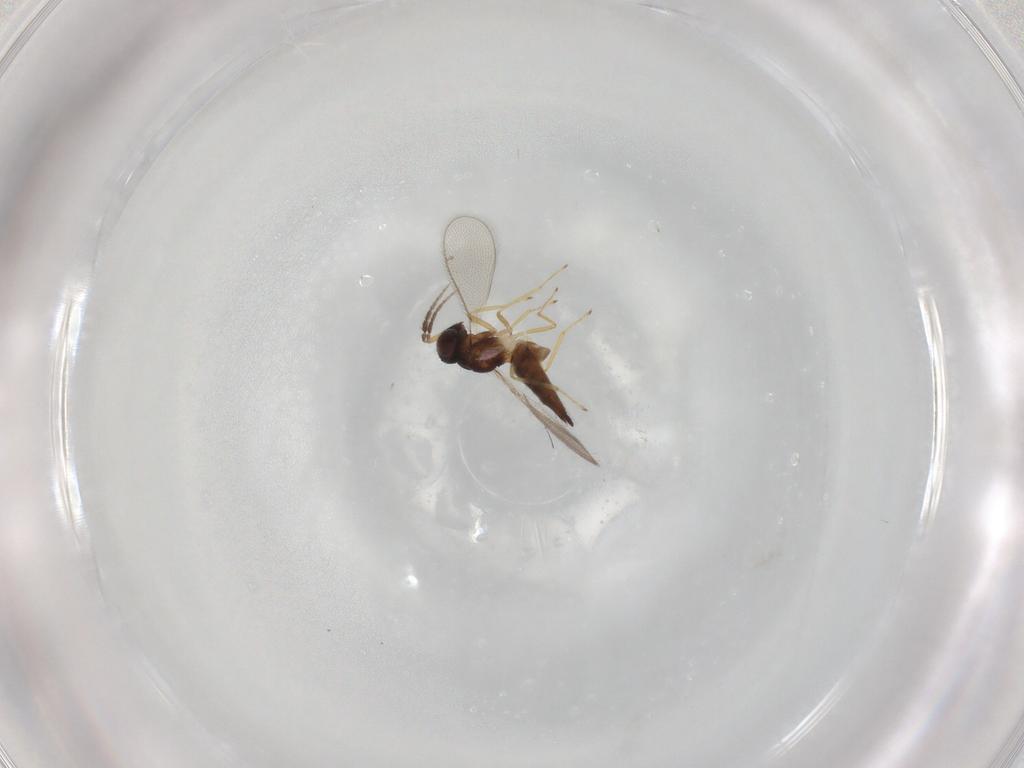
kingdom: Animalia
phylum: Arthropoda
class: Insecta
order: Hymenoptera
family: Eulophidae
